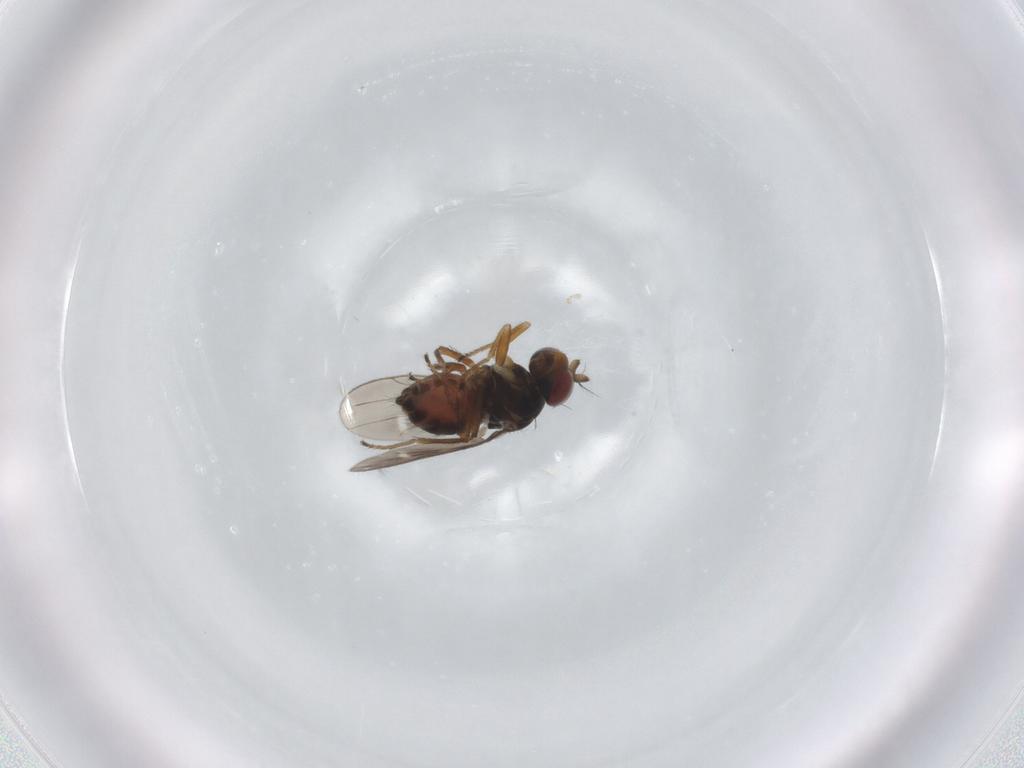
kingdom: Animalia
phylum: Arthropoda
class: Insecta
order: Diptera
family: Ephydridae
